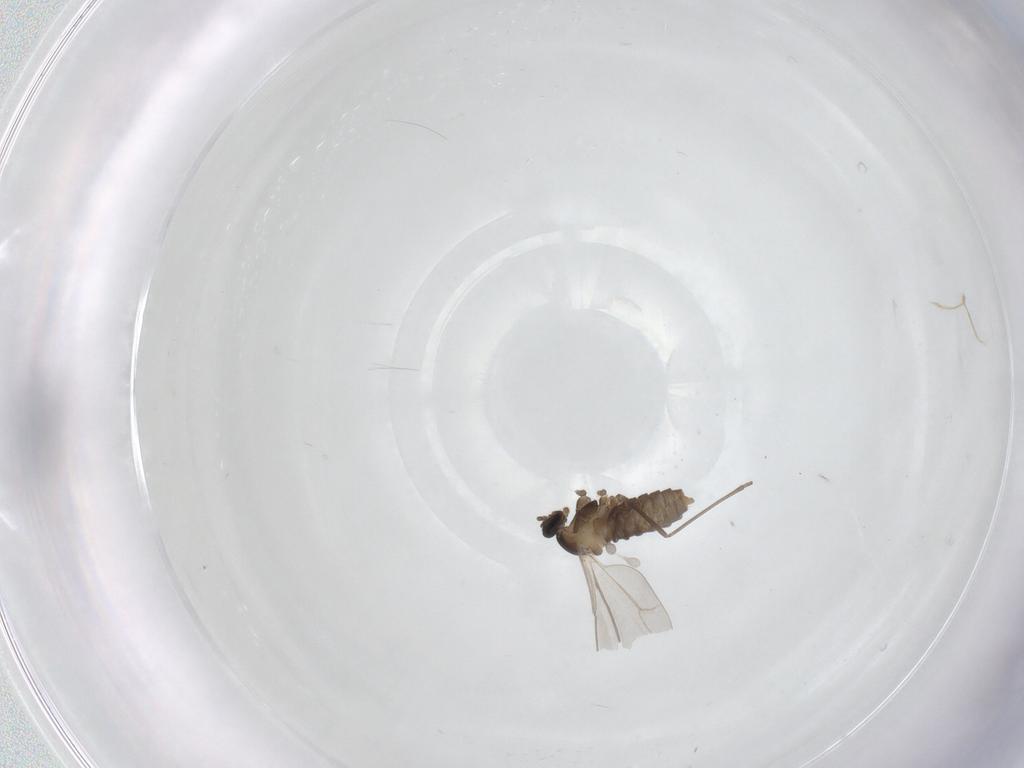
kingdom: Animalia
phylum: Arthropoda
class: Insecta
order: Diptera
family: Cecidomyiidae
